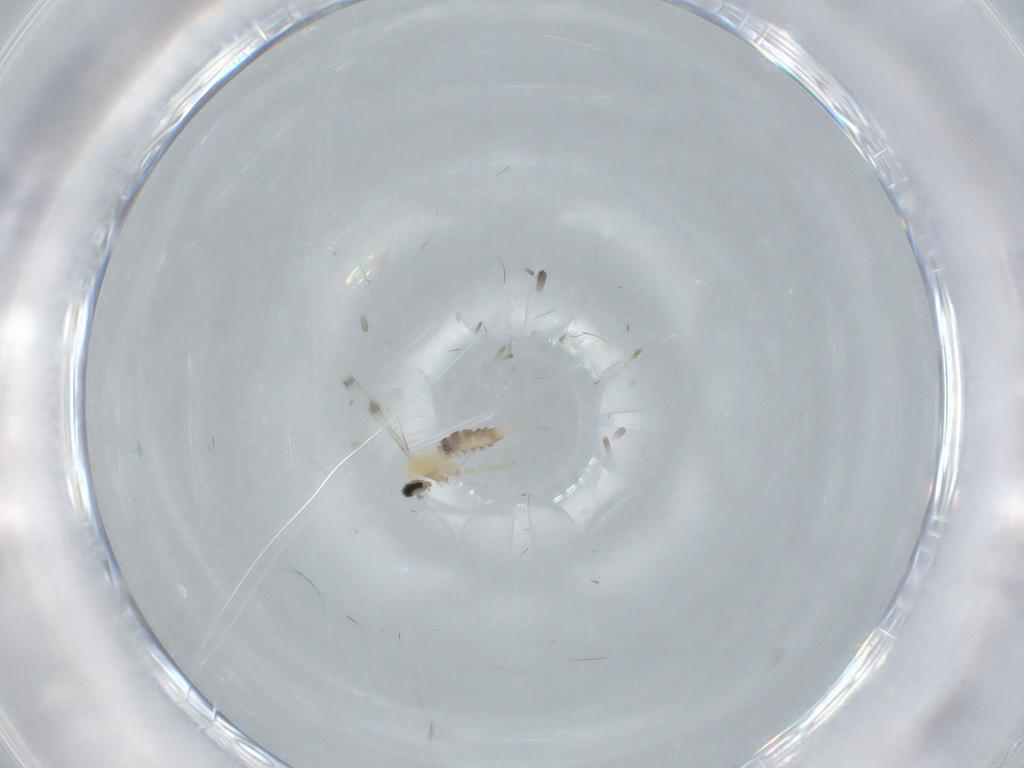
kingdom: Animalia
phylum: Arthropoda
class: Insecta
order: Diptera
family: Cecidomyiidae
